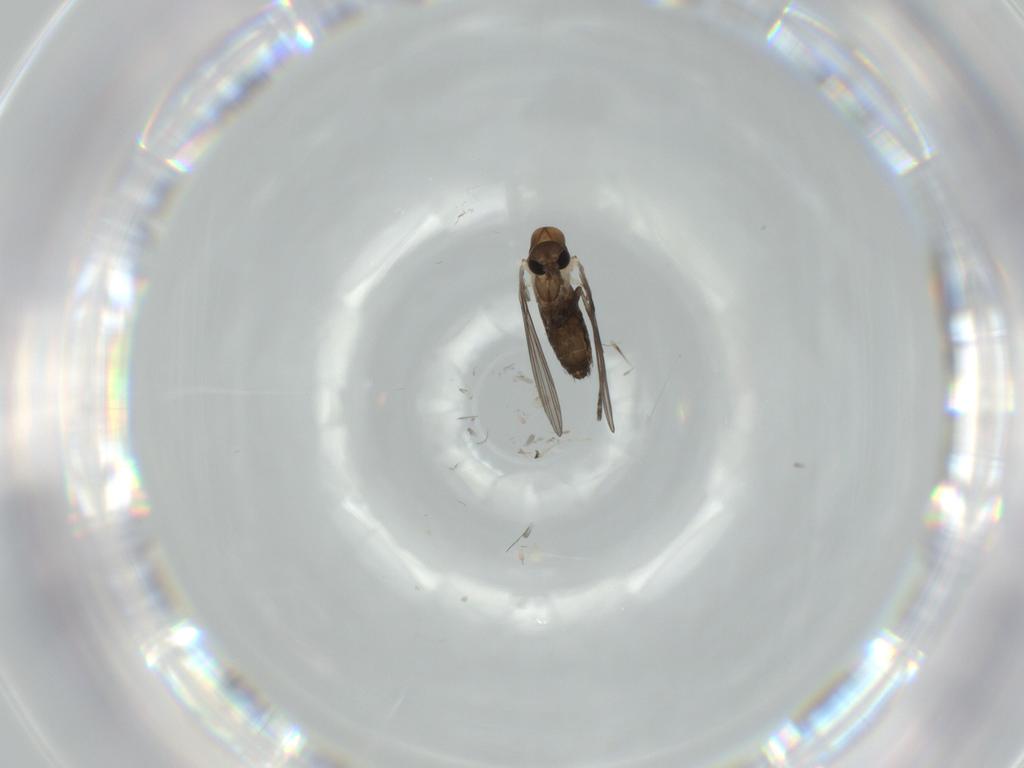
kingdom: Animalia
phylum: Arthropoda
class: Insecta
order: Diptera
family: Psychodidae
